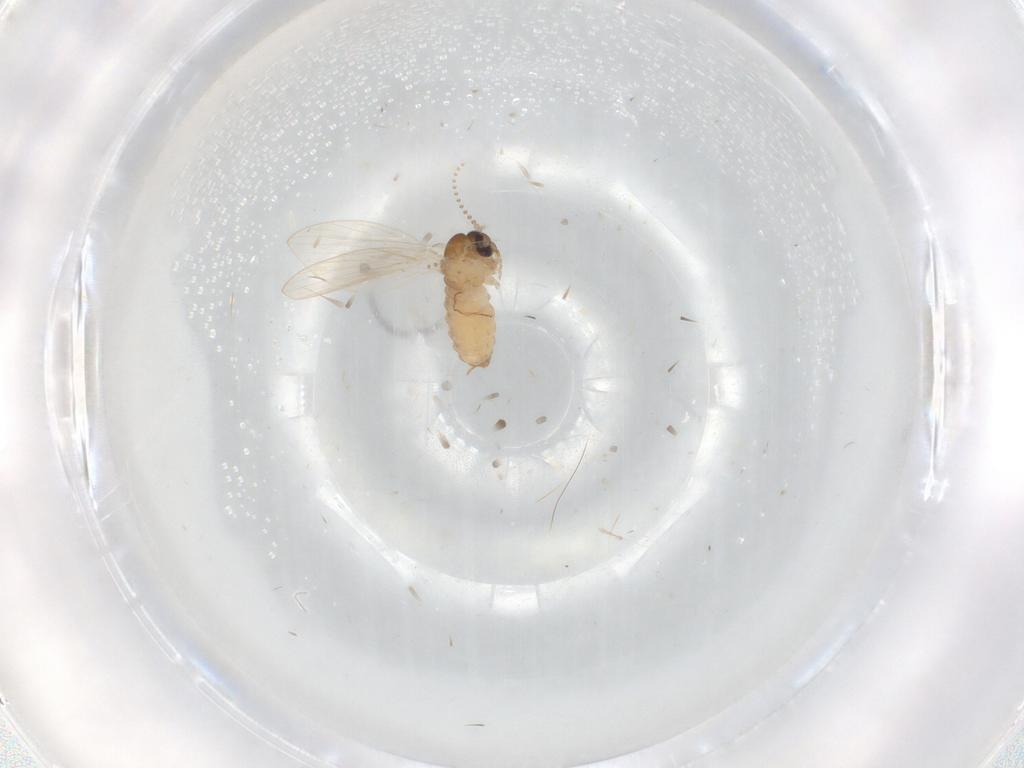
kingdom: Animalia
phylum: Arthropoda
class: Insecta
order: Diptera
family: Psychodidae
